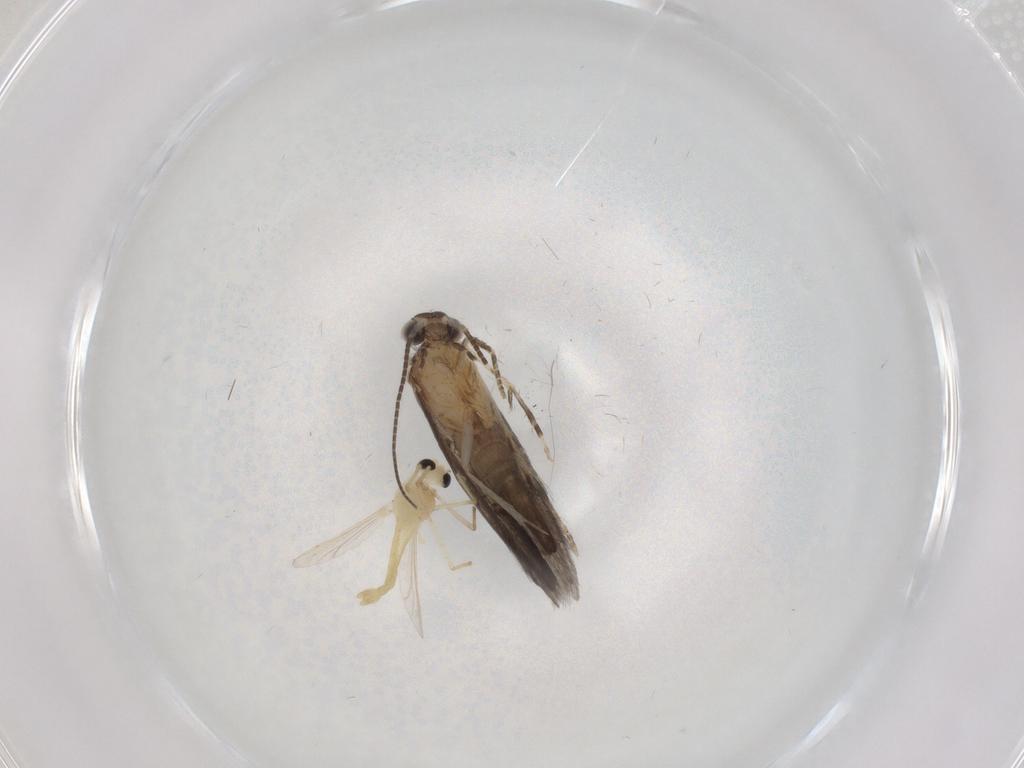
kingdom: Animalia
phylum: Arthropoda
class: Insecta
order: Diptera
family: Chironomidae
